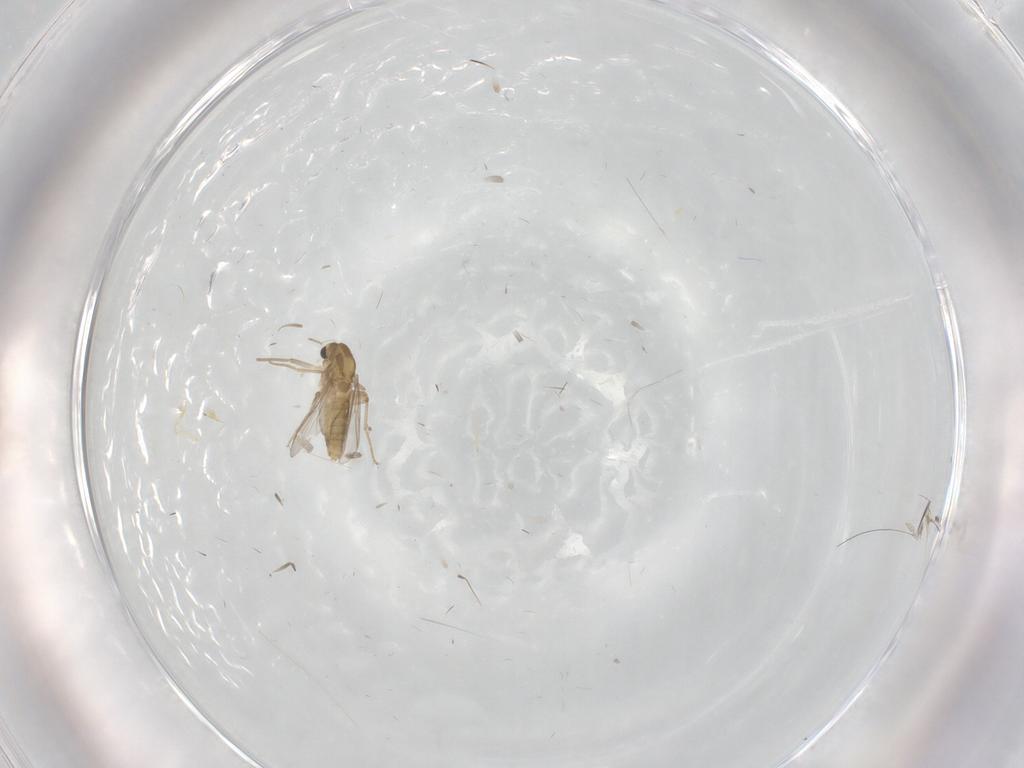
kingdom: Animalia
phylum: Arthropoda
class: Insecta
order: Diptera
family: Chironomidae
